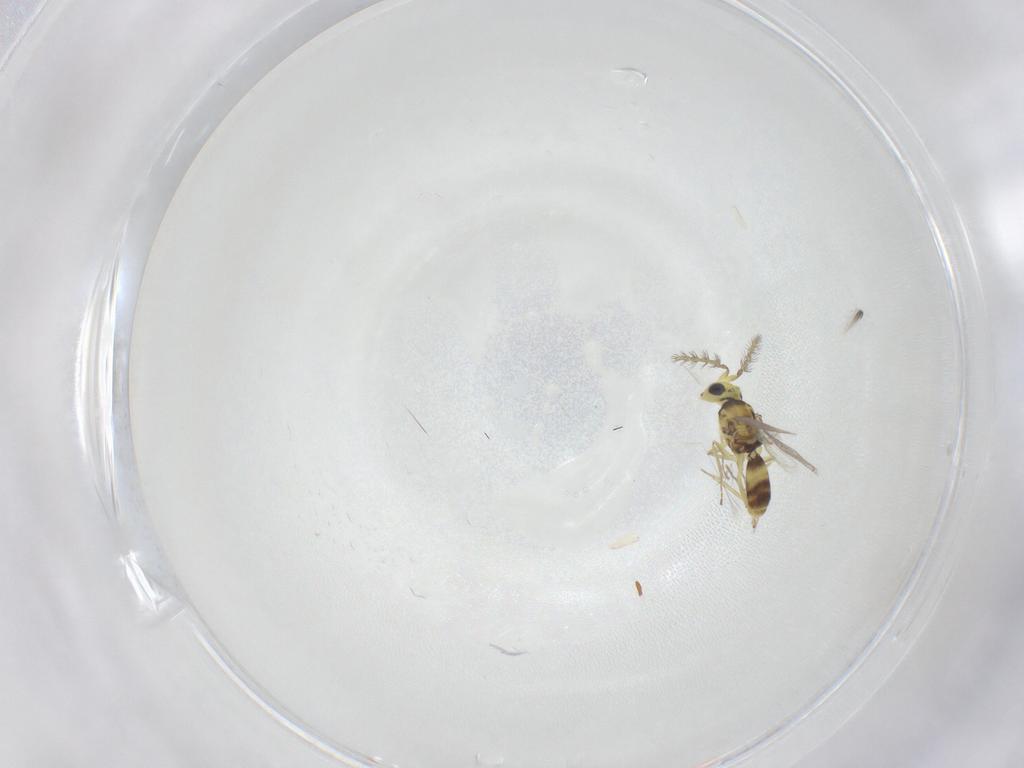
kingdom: Animalia
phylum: Arthropoda
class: Insecta
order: Hymenoptera
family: Eulophidae
